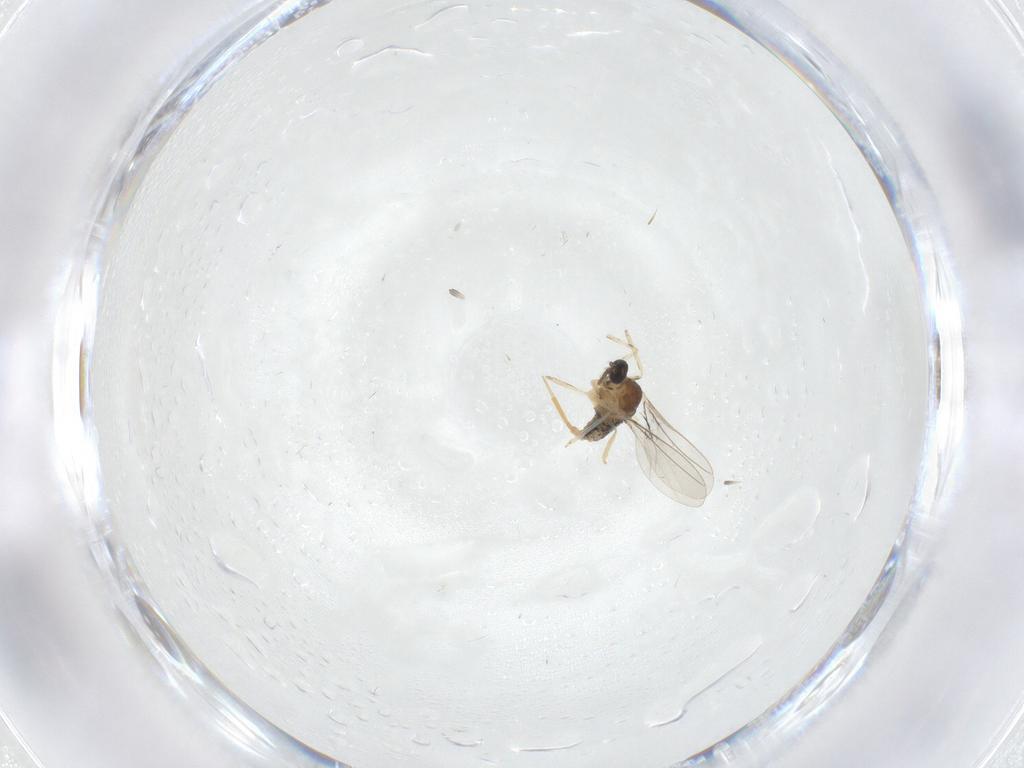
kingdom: Animalia
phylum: Arthropoda
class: Insecta
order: Diptera
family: Cecidomyiidae
